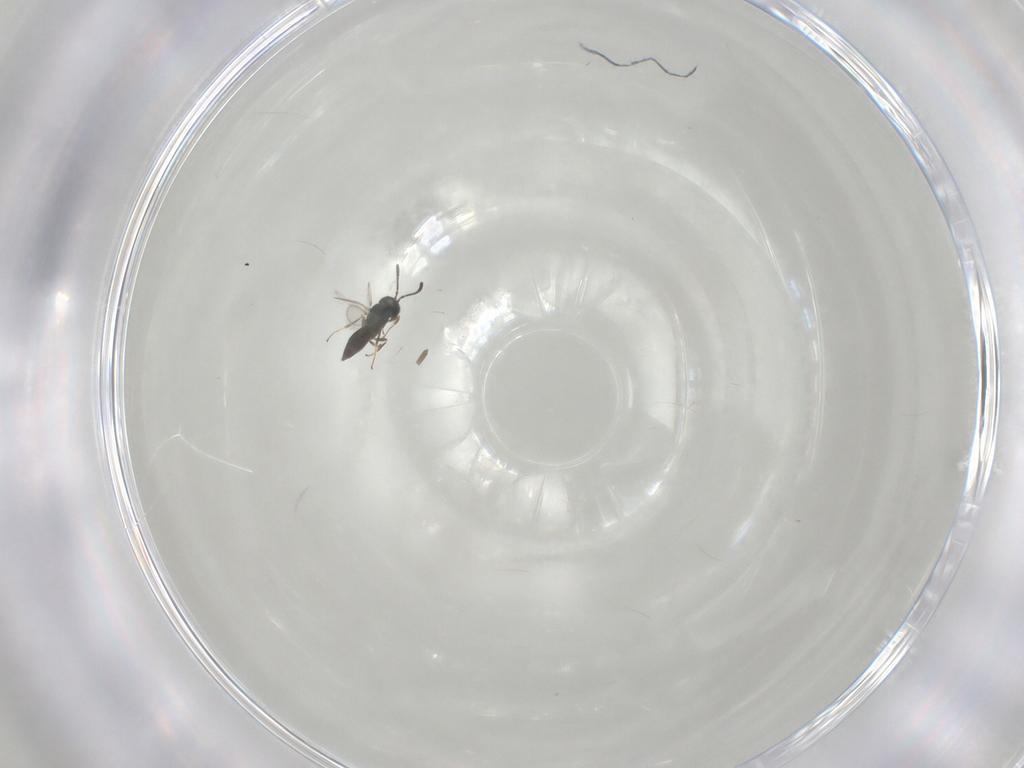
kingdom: Animalia
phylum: Arthropoda
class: Insecta
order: Hymenoptera
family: Scelionidae
